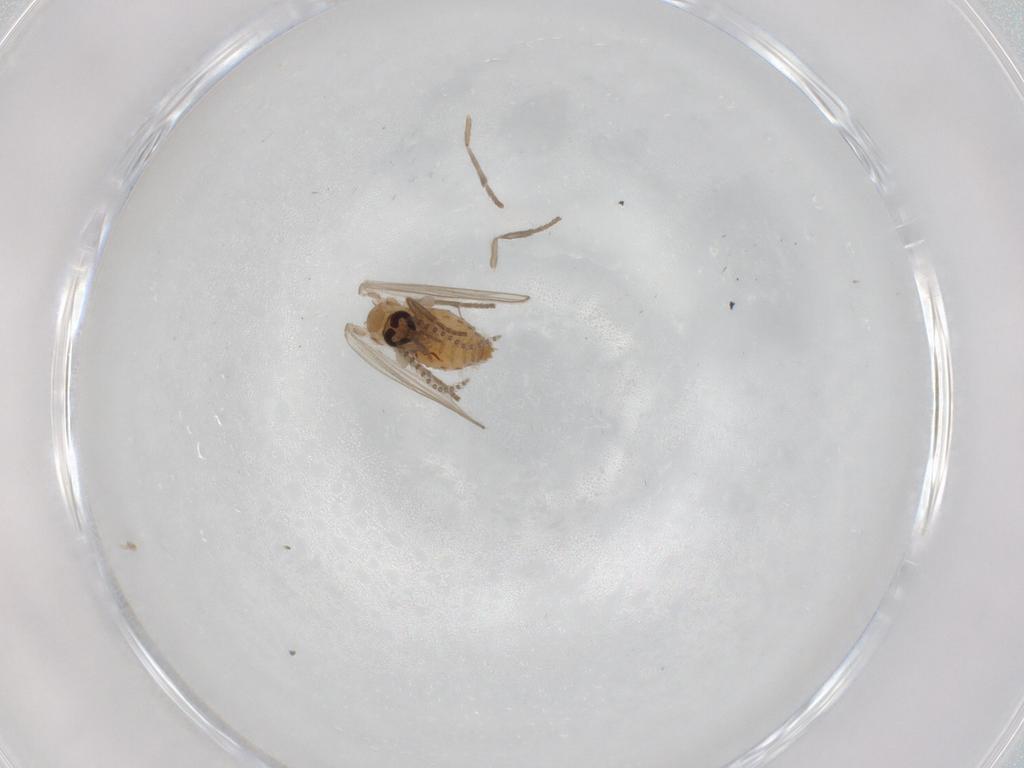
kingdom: Animalia
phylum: Arthropoda
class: Insecta
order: Diptera
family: Psychodidae
